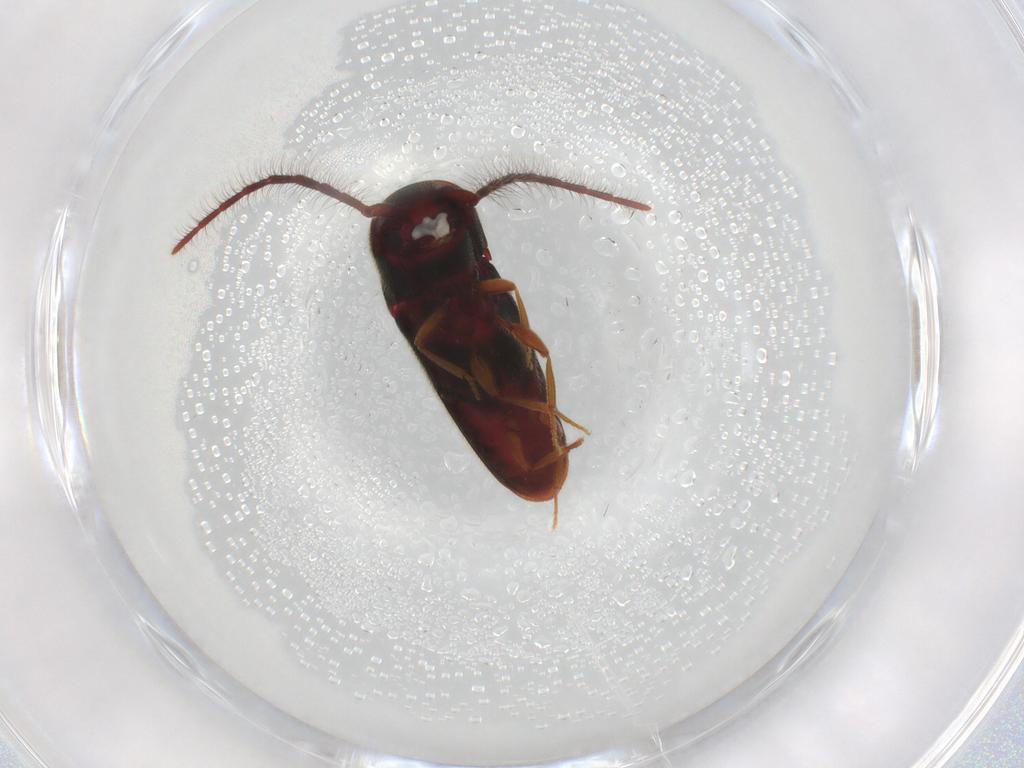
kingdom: Animalia
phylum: Arthropoda
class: Insecta
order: Coleoptera
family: Eucnemidae
